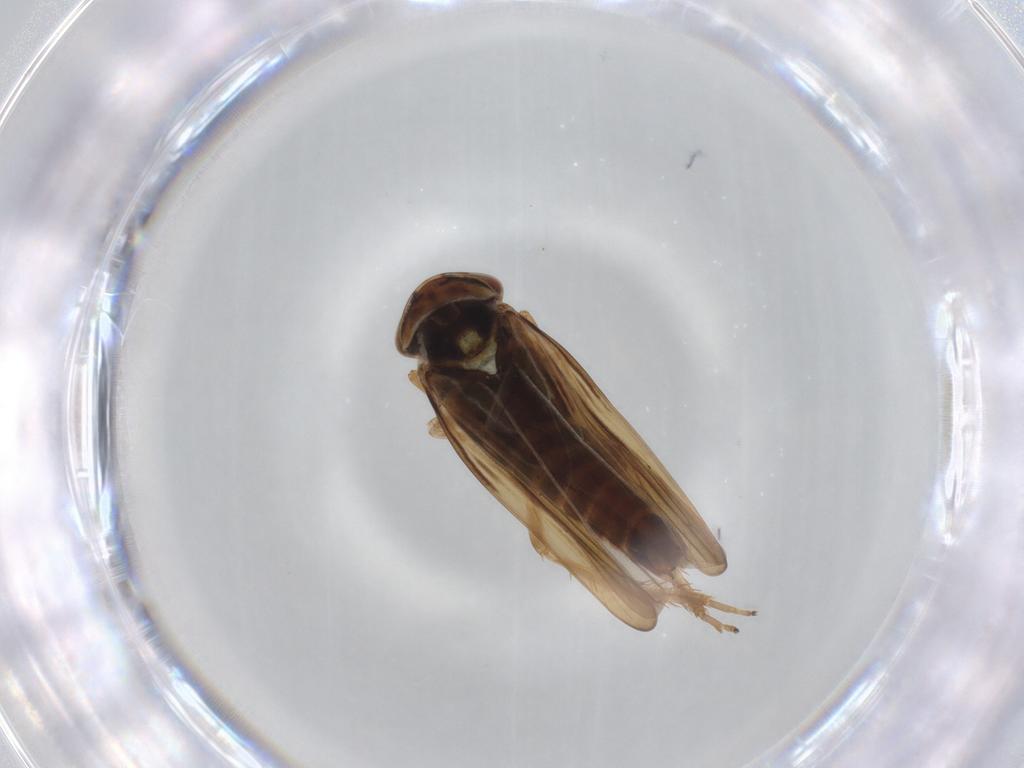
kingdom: Animalia
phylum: Arthropoda
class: Insecta
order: Hemiptera
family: Cicadellidae
